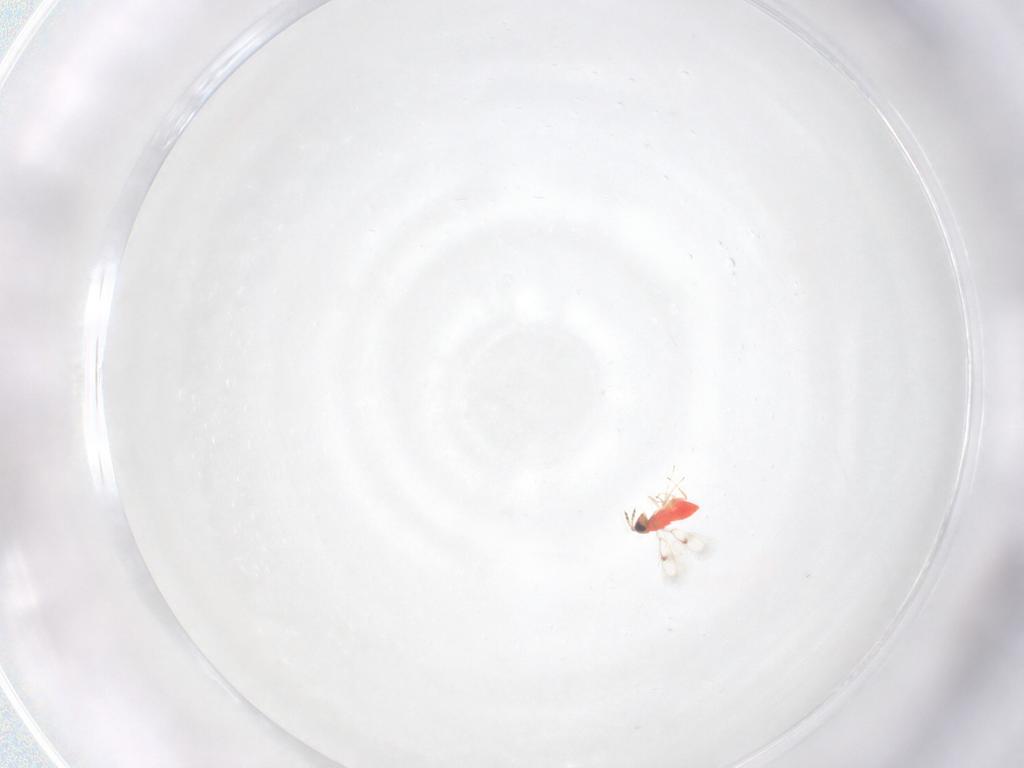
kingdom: Animalia
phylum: Arthropoda
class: Insecta
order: Hymenoptera
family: Trichogrammatidae
